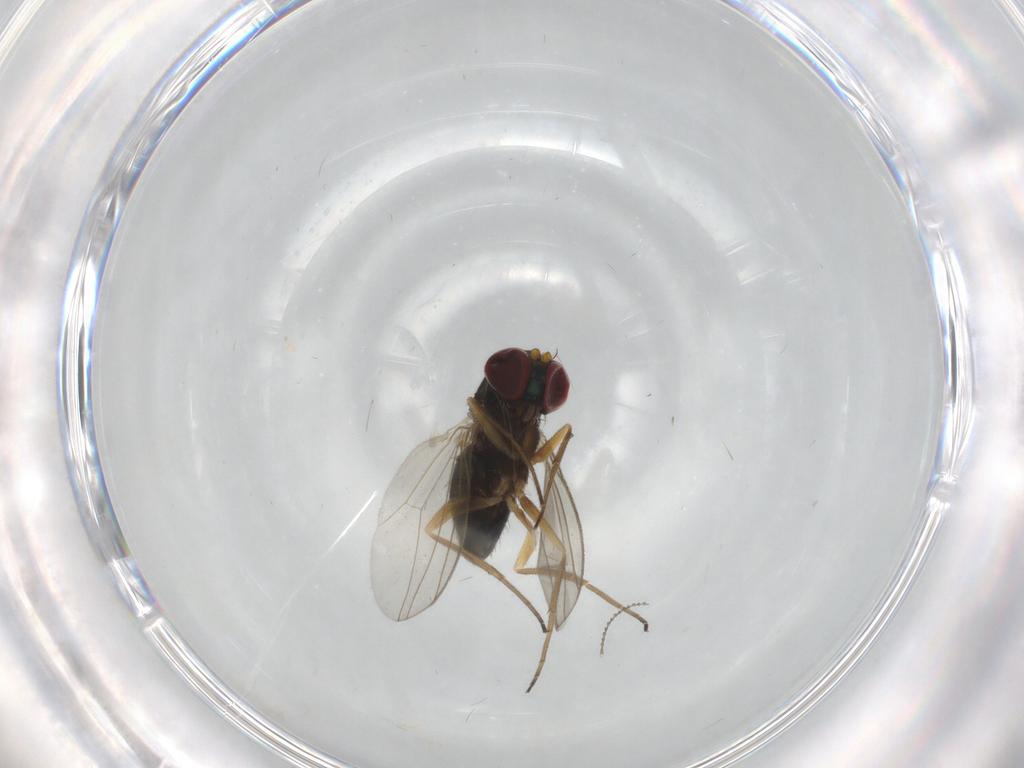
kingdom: Animalia
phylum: Arthropoda
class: Insecta
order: Diptera
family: Cecidomyiidae
